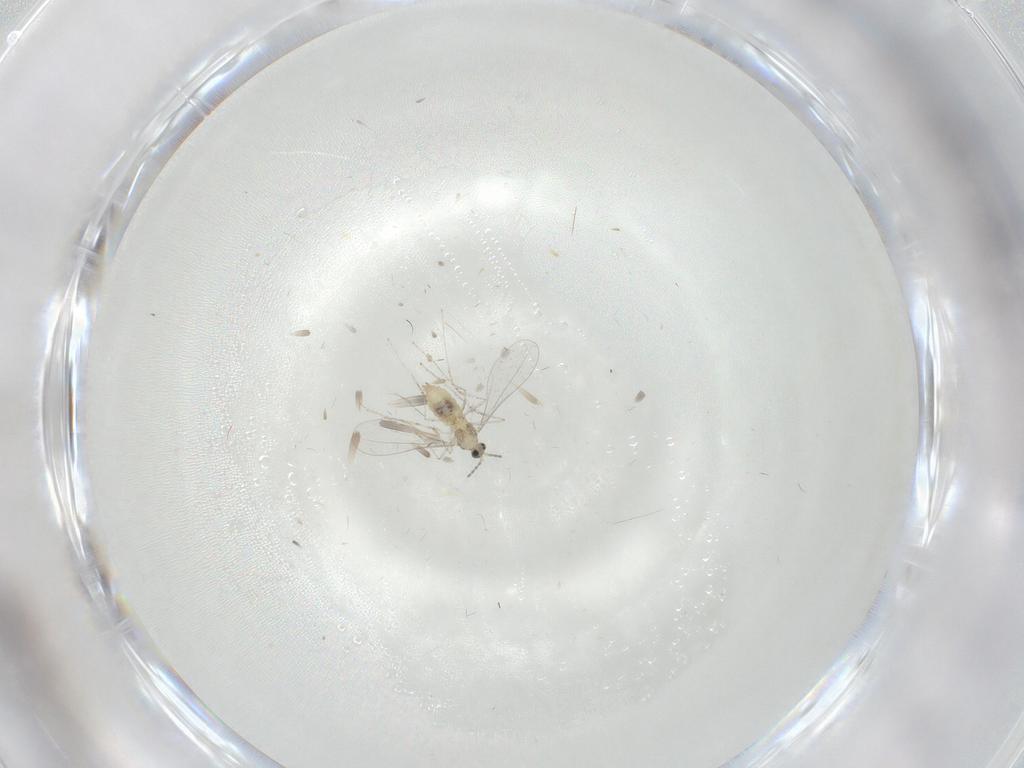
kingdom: Animalia
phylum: Arthropoda
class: Insecta
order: Diptera
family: Cecidomyiidae
